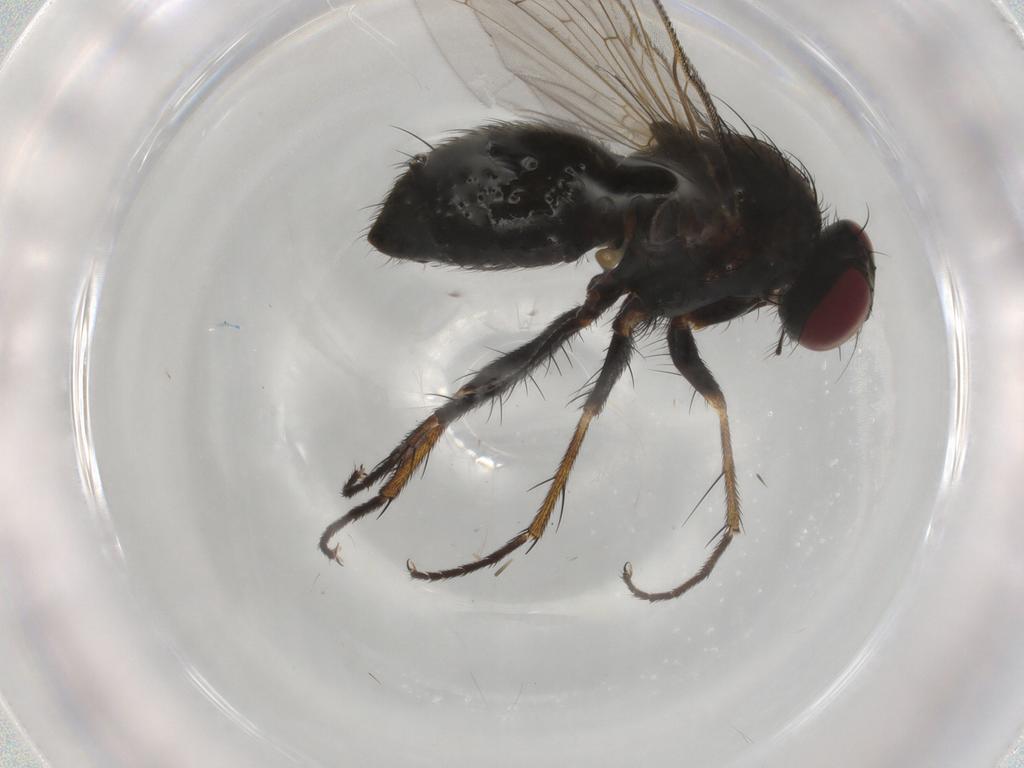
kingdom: Animalia
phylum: Arthropoda
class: Insecta
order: Diptera
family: Muscidae
